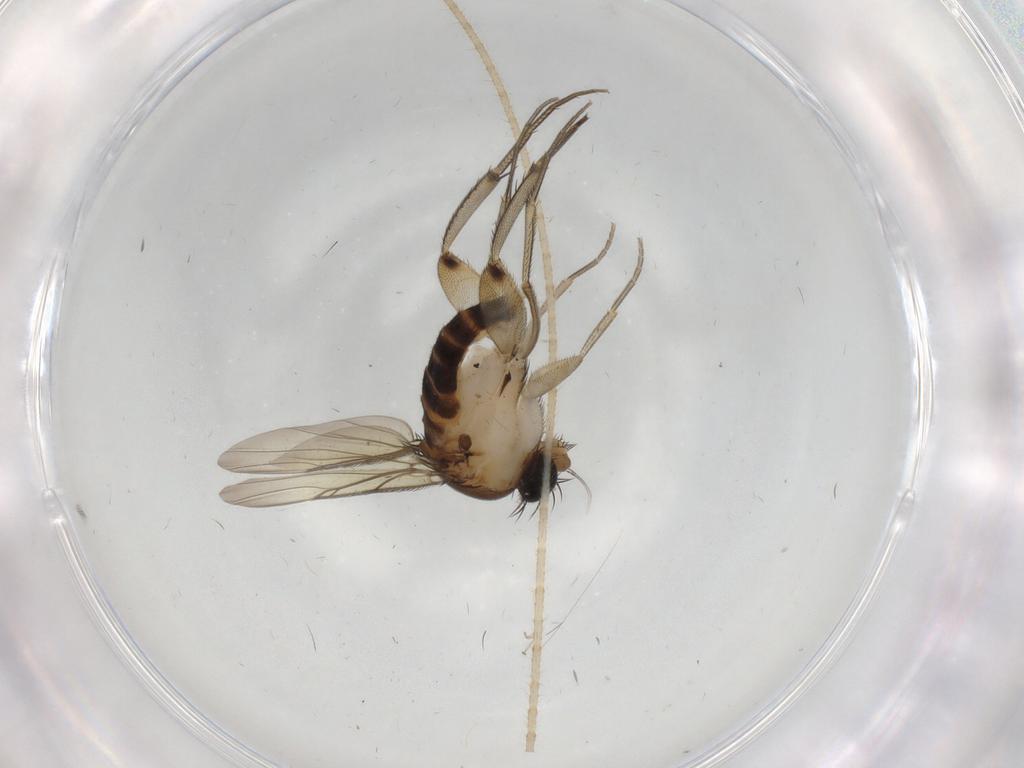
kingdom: Animalia
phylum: Arthropoda
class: Insecta
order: Diptera
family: Phoridae
